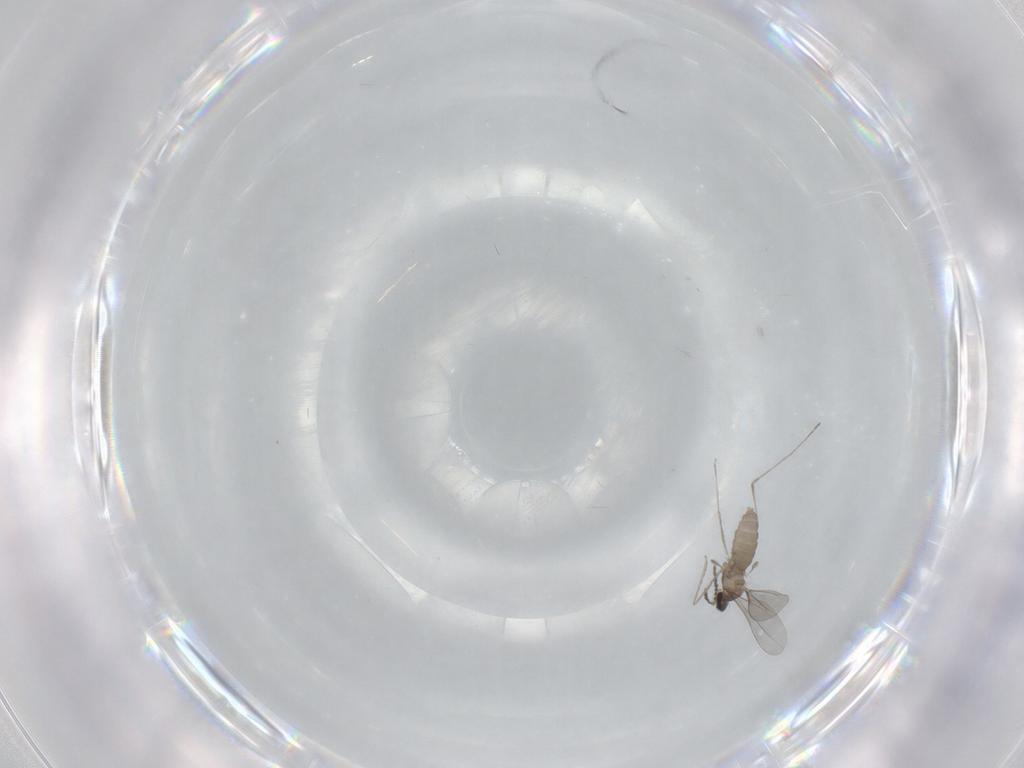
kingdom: Animalia
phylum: Arthropoda
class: Insecta
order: Diptera
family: Cecidomyiidae
